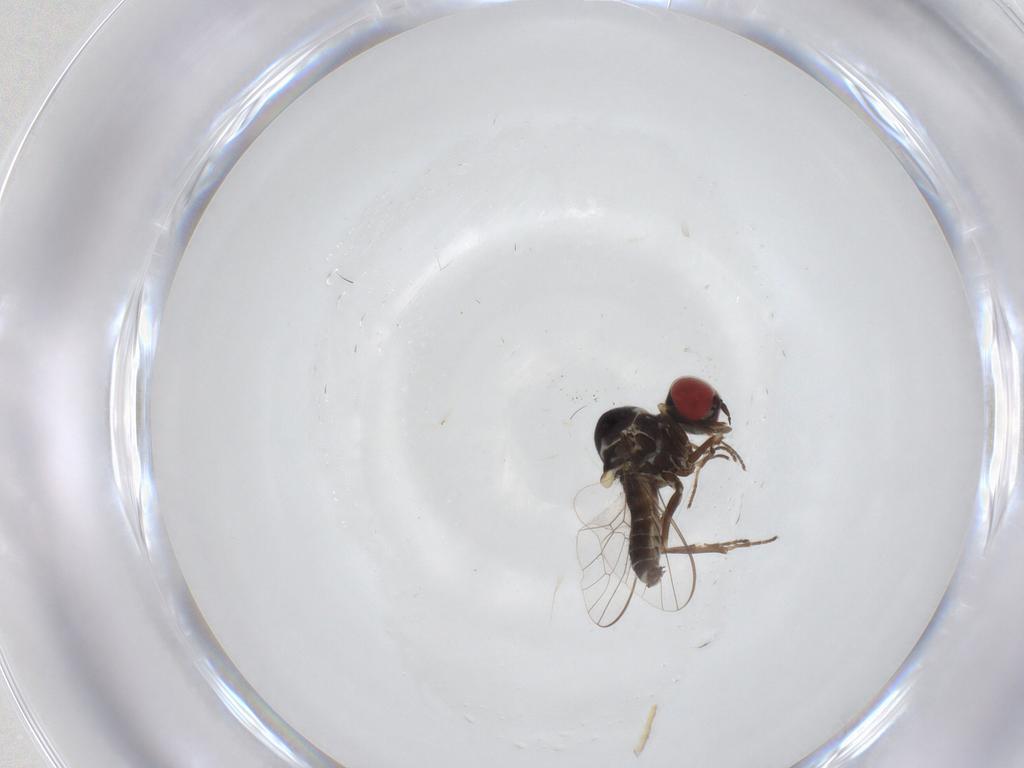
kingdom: Animalia
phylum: Arthropoda
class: Insecta
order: Diptera
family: Bombyliidae
